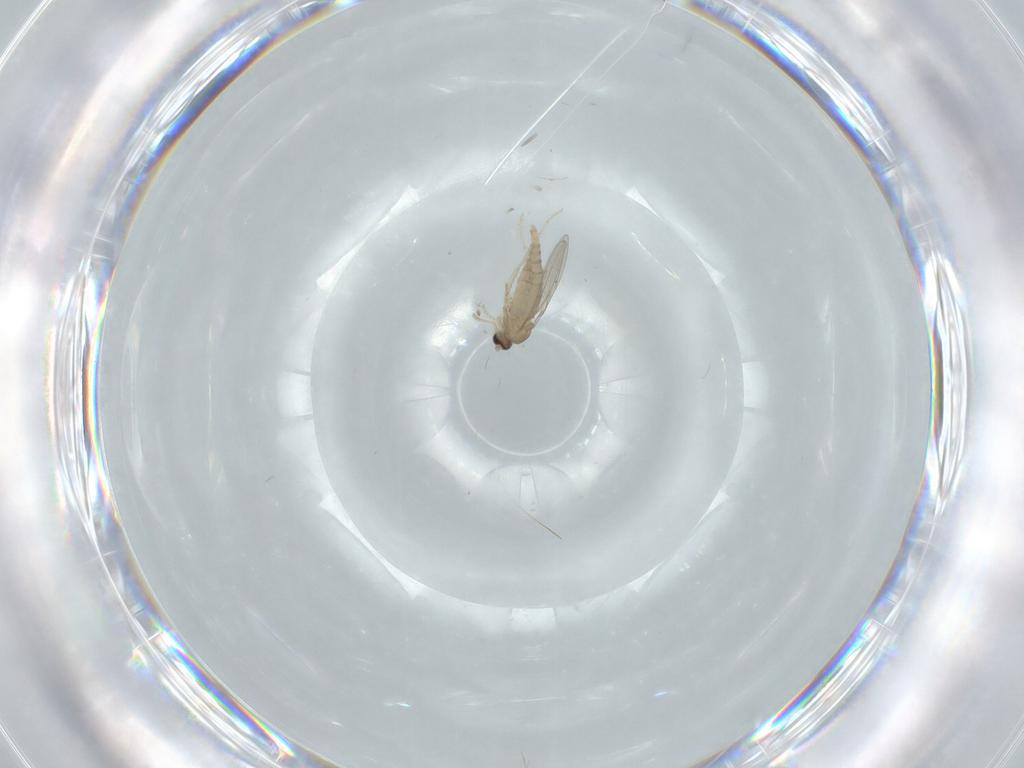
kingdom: Animalia
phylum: Arthropoda
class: Insecta
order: Diptera
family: Cecidomyiidae
